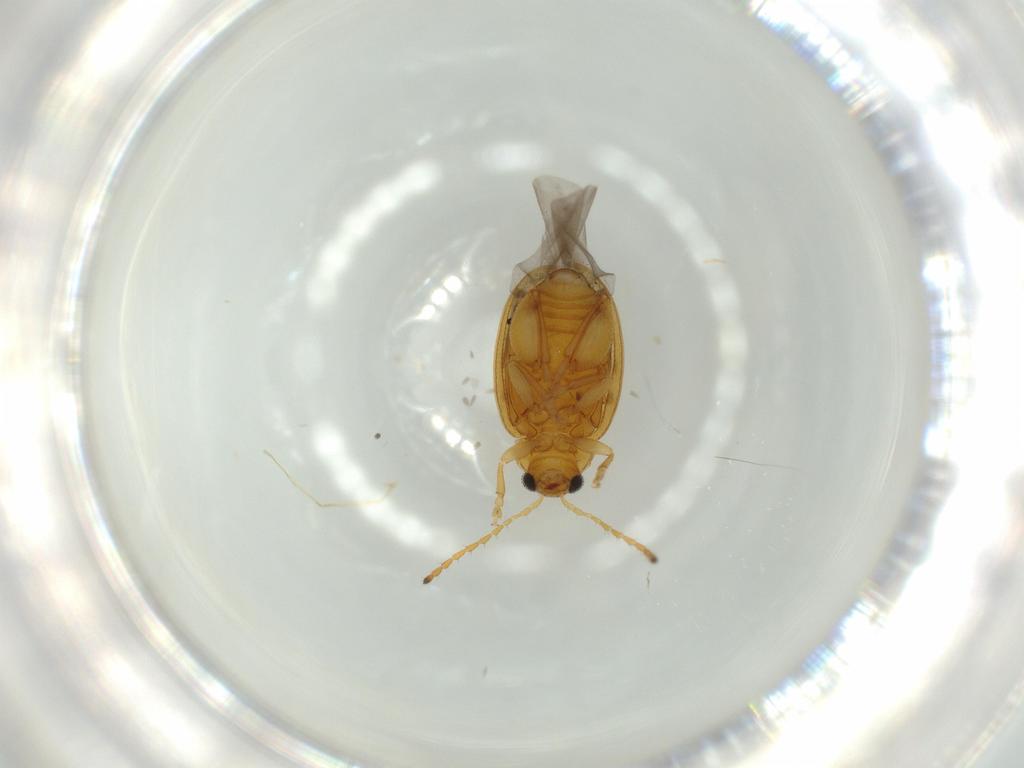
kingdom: Animalia
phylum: Arthropoda
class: Insecta
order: Coleoptera
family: Chrysomelidae
